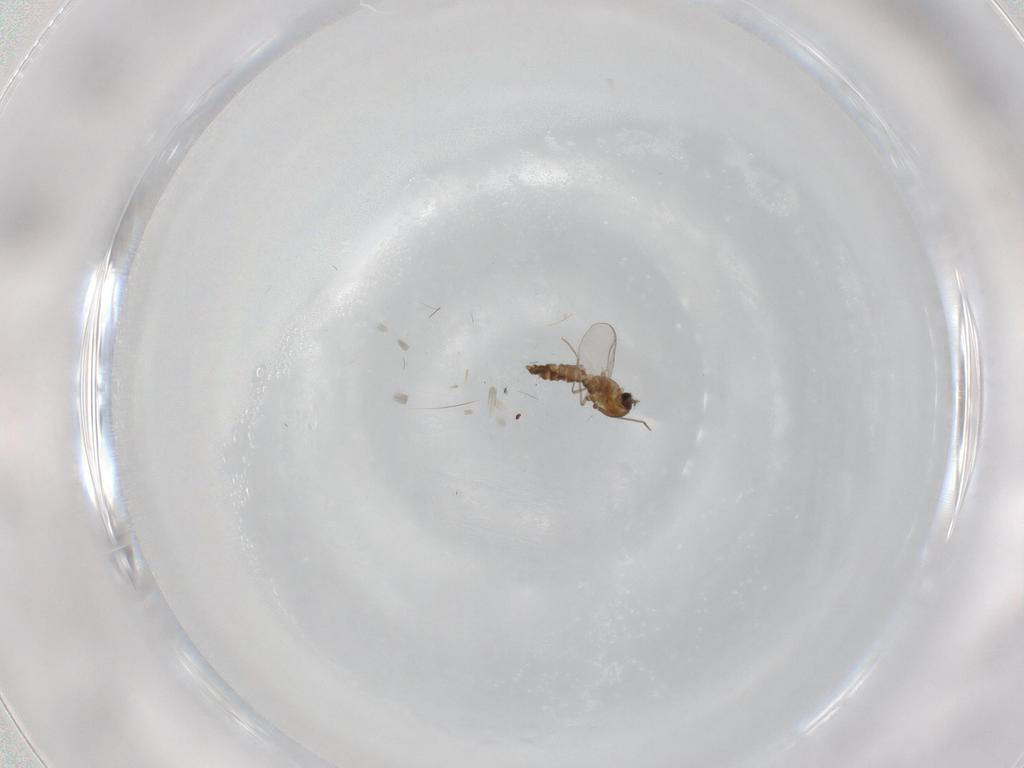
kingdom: Animalia
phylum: Arthropoda
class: Insecta
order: Diptera
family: Chironomidae
